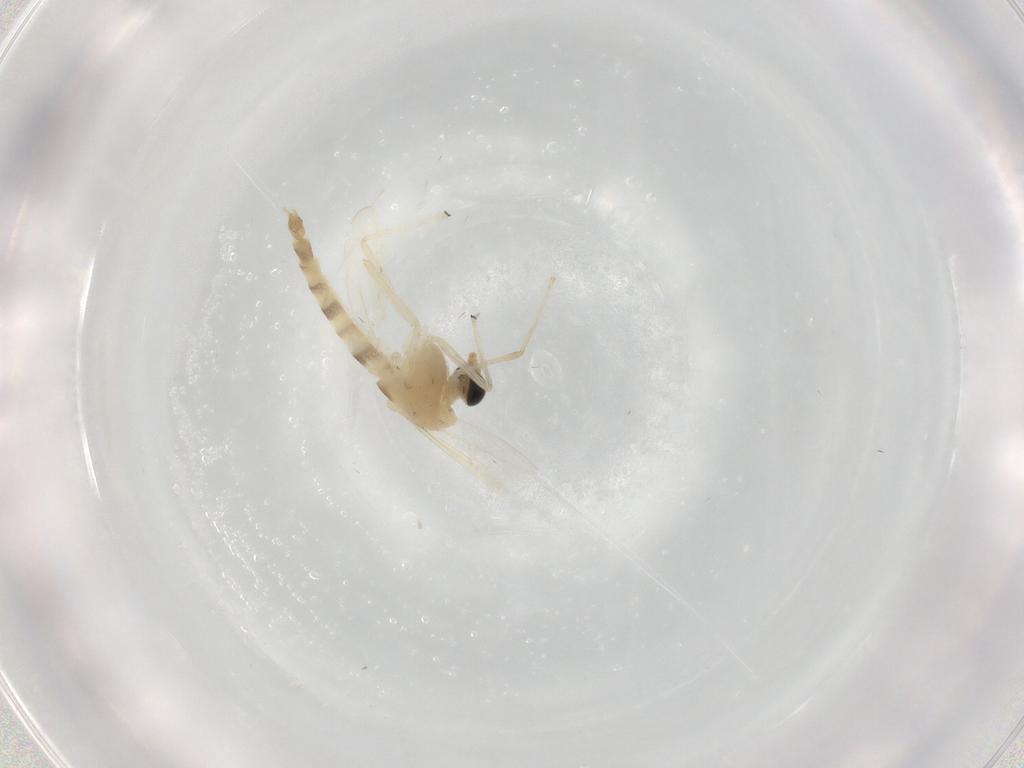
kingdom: Animalia
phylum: Arthropoda
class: Insecta
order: Diptera
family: Chironomidae
